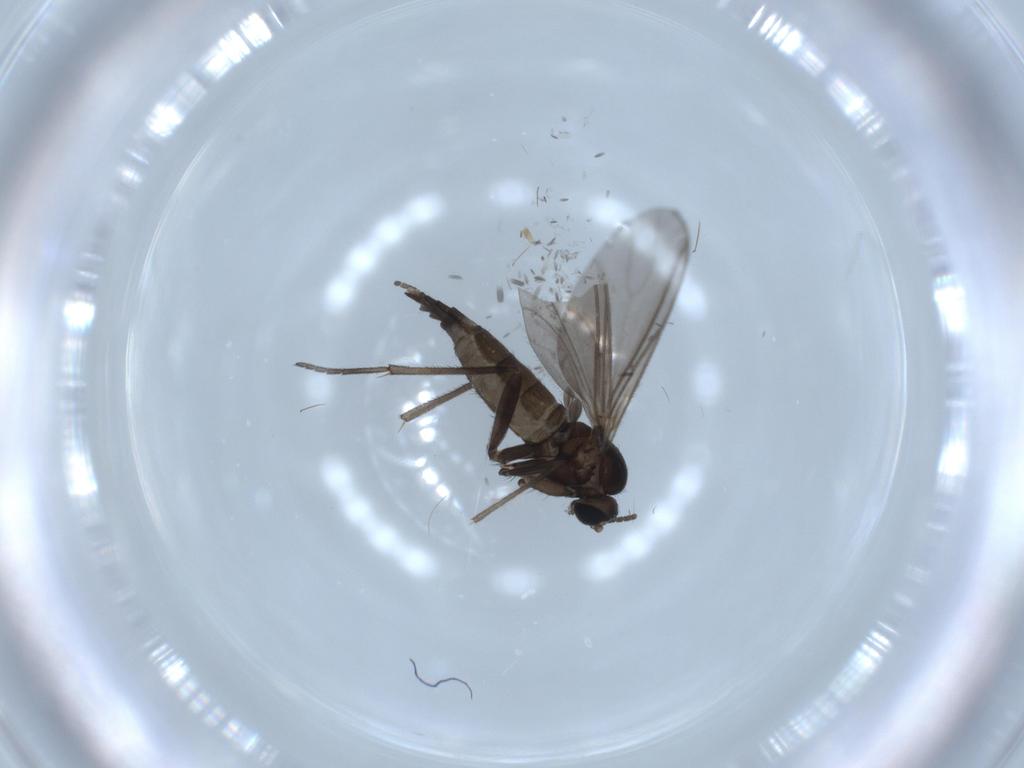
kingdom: Animalia
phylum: Arthropoda
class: Insecta
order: Diptera
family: Sciaridae
